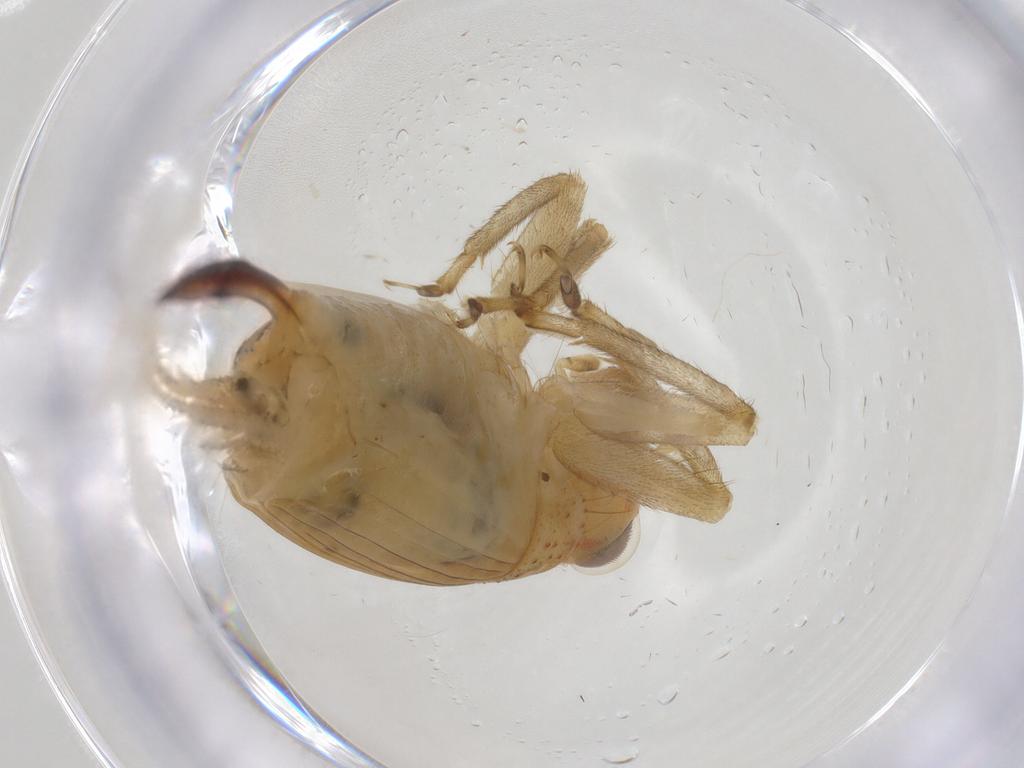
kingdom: Animalia
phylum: Arthropoda
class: Insecta
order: Orthoptera
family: Trigonidiidae
